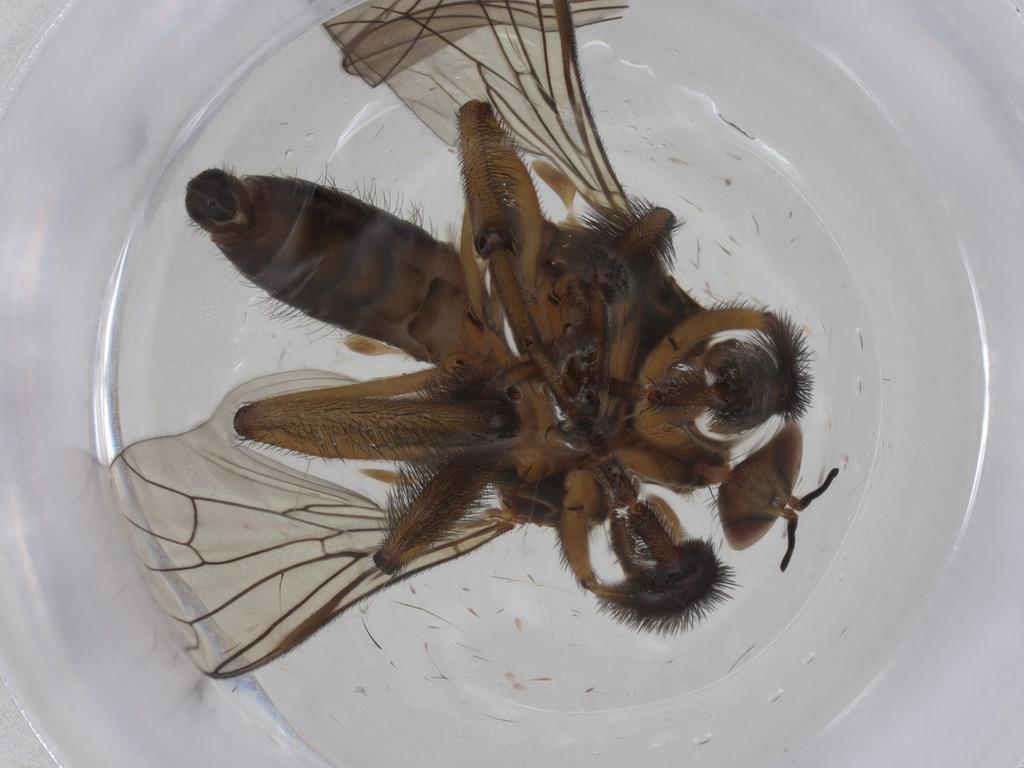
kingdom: Animalia
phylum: Arthropoda
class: Insecta
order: Diptera
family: Empididae
